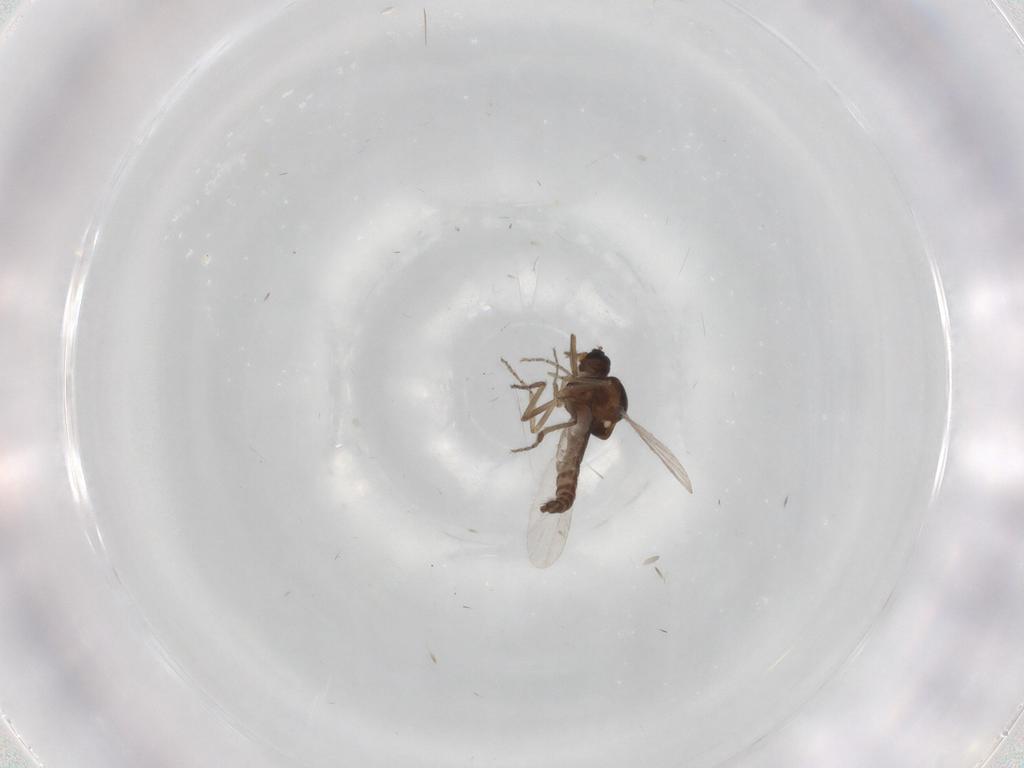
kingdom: Animalia
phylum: Arthropoda
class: Insecta
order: Diptera
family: Ceratopogonidae
